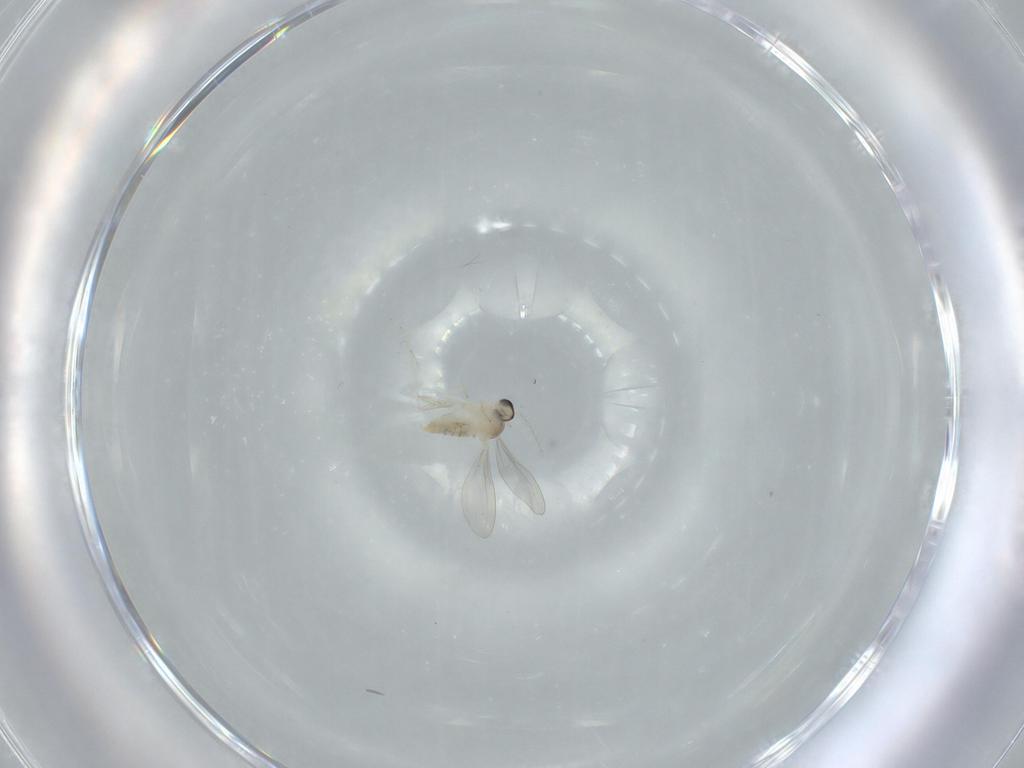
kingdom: Animalia
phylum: Arthropoda
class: Insecta
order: Diptera
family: Cecidomyiidae
